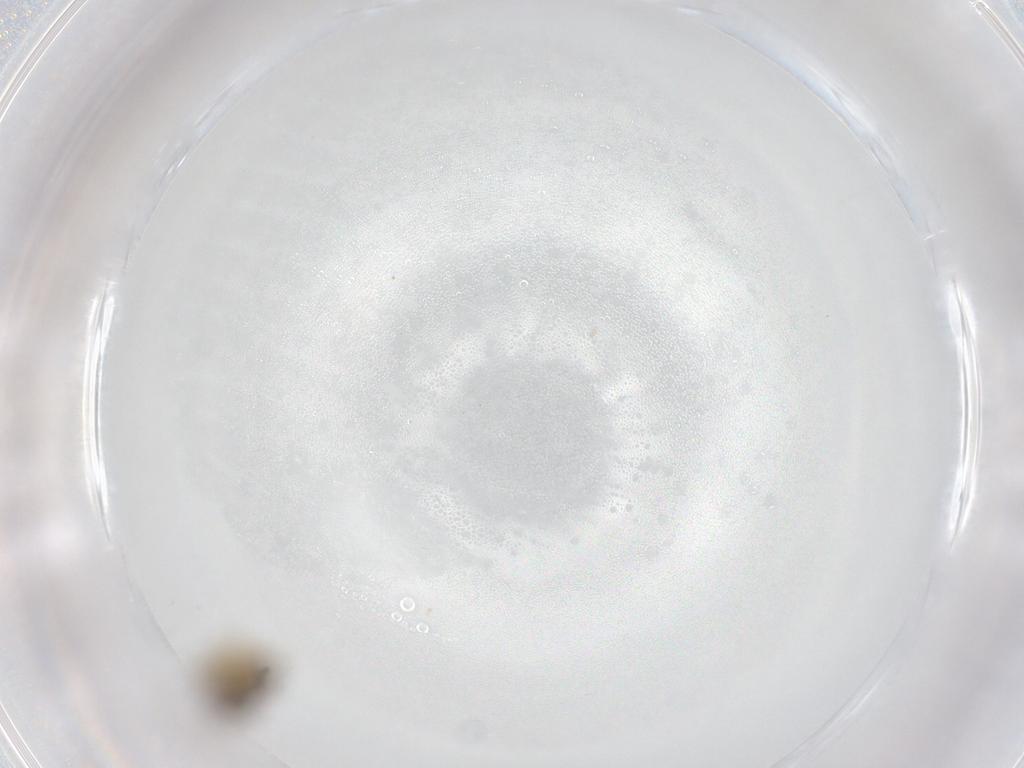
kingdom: Animalia
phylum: Arthropoda
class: Insecta
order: Diptera
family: Chironomidae
